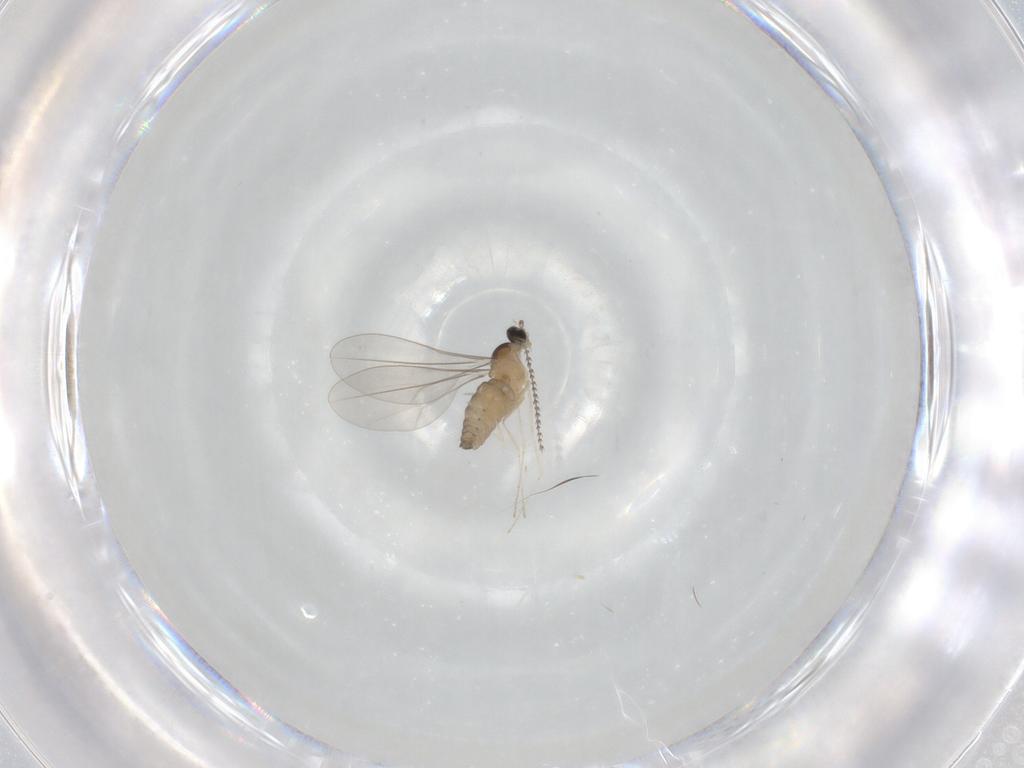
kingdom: Animalia
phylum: Arthropoda
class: Insecta
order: Diptera
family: Cecidomyiidae
